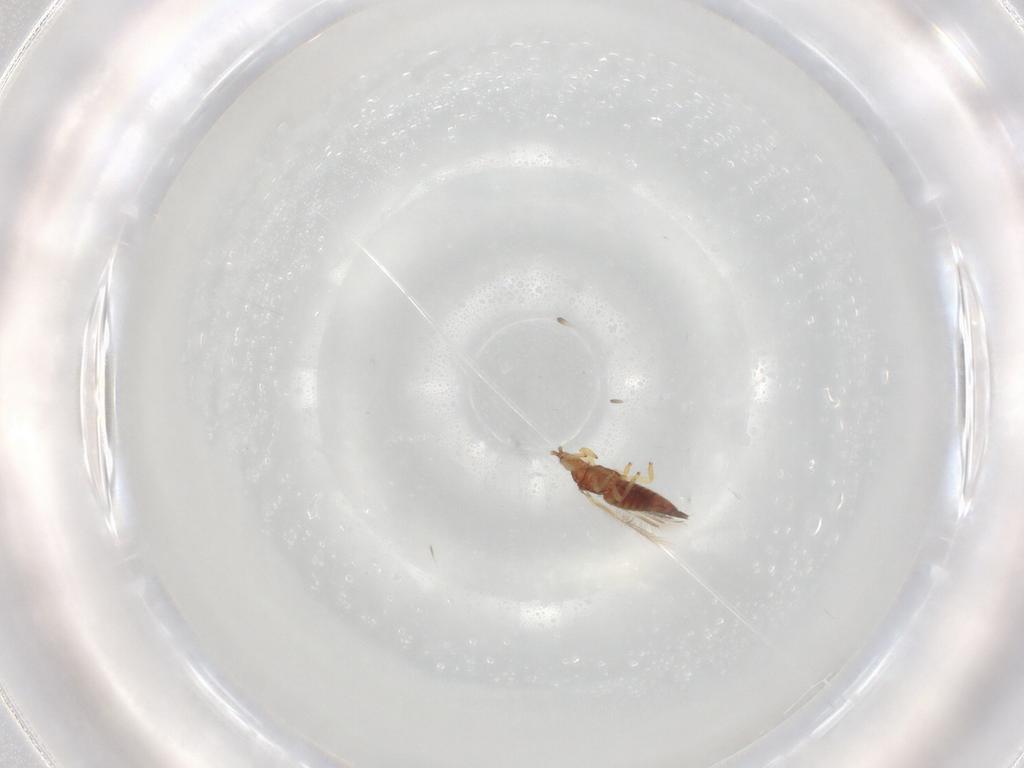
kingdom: Animalia
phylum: Arthropoda
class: Insecta
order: Thysanoptera
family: Phlaeothripidae
